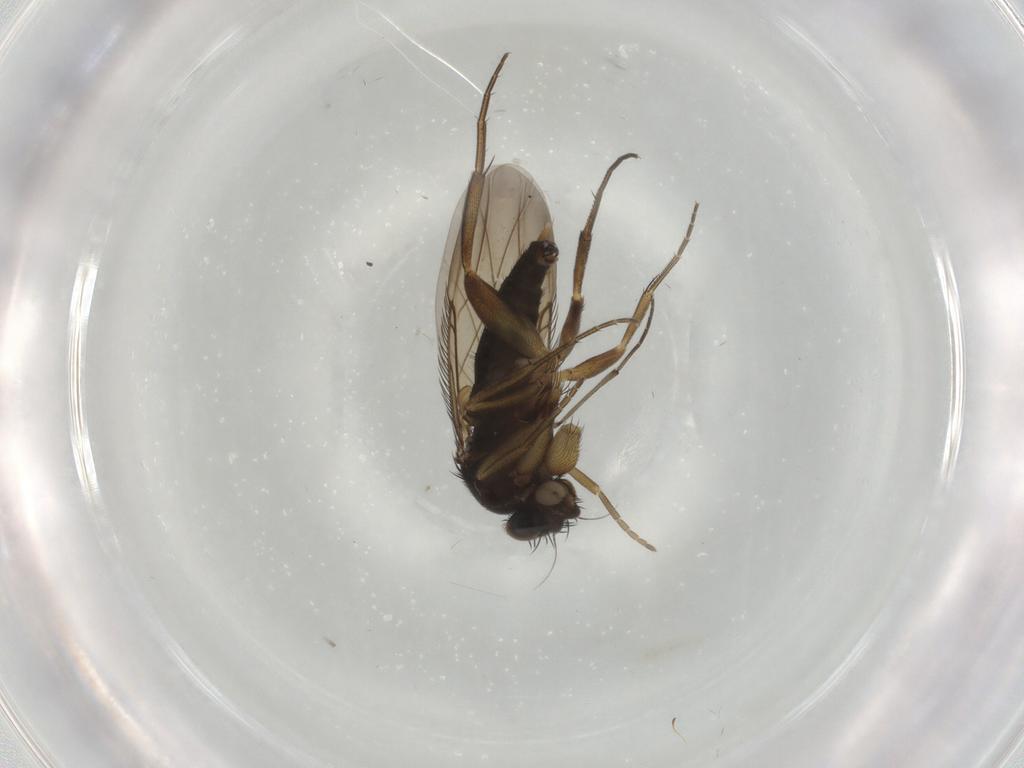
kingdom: Animalia
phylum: Arthropoda
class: Insecta
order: Diptera
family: Phoridae
